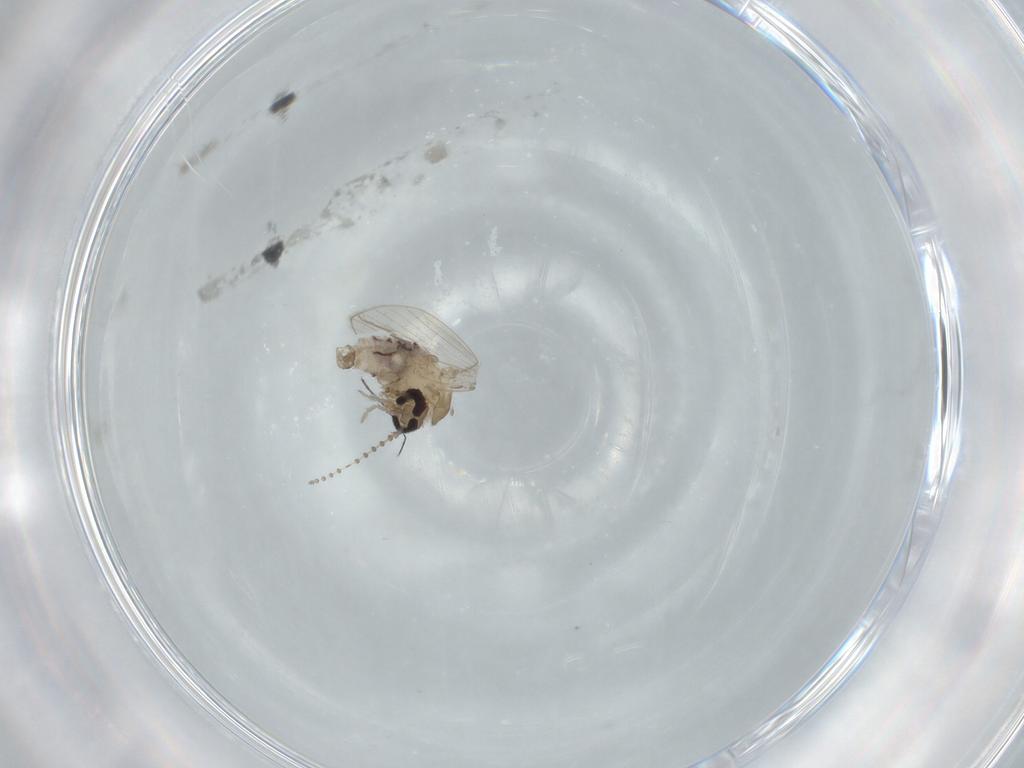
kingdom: Animalia
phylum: Arthropoda
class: Insecta
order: Diptera
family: Psychodidae
